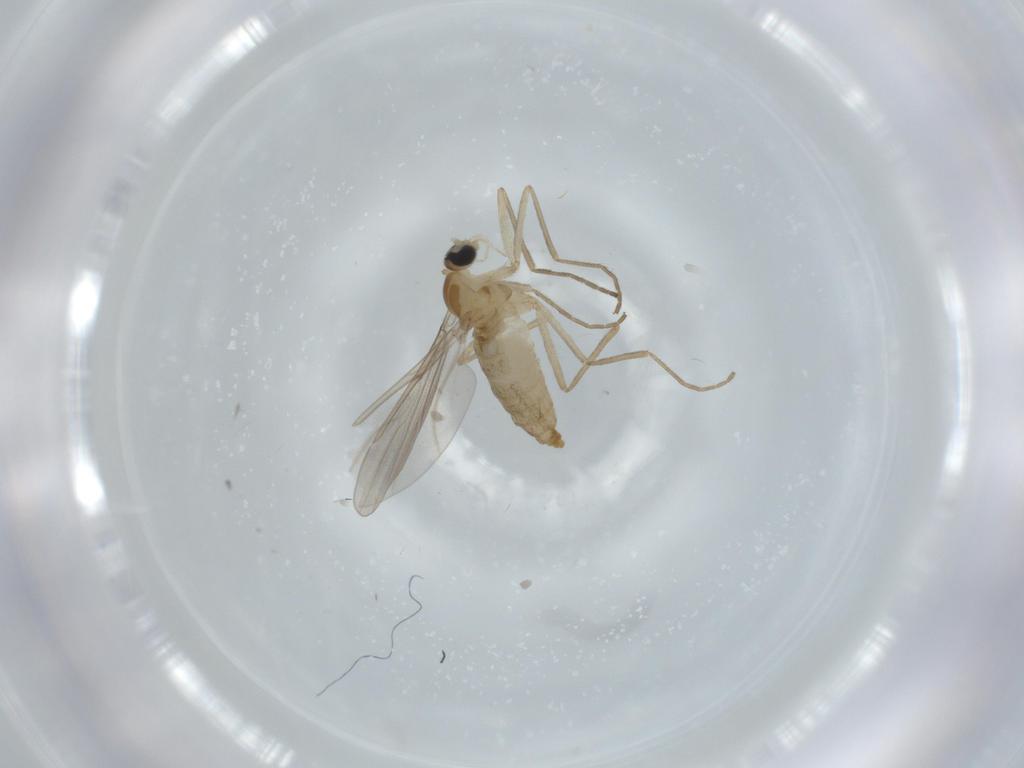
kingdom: Animalia
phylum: Arthropoda
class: Insecta
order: Diptera
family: Cecidomyiidae
